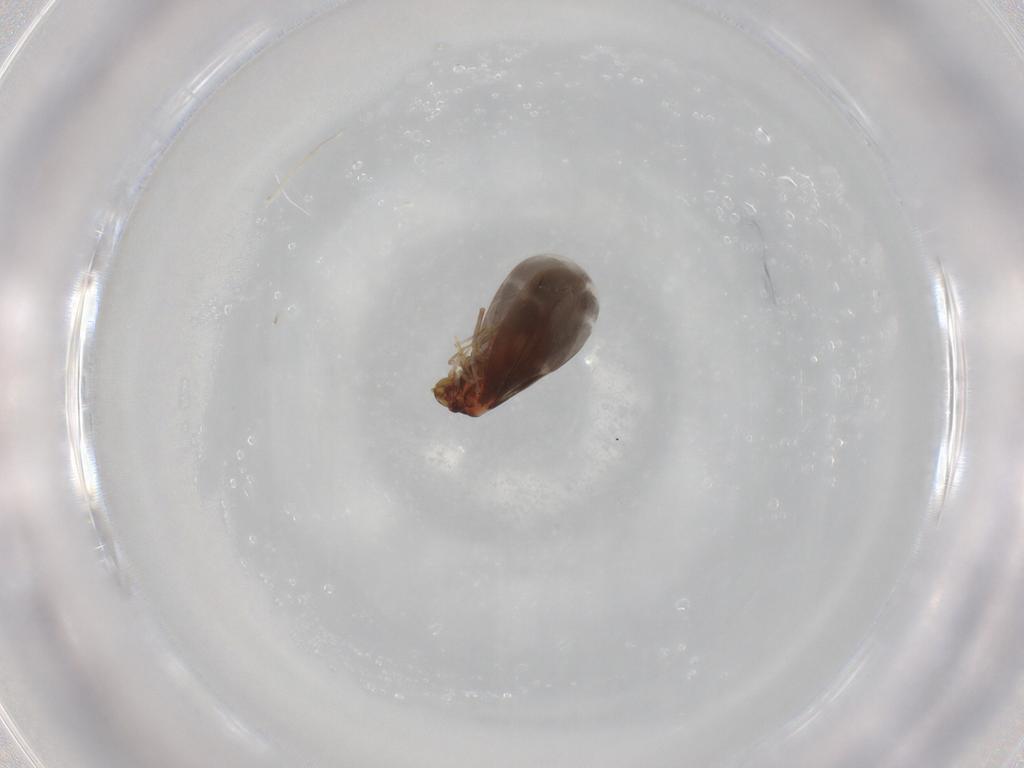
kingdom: Animalia
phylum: Arthropoda
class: Insecta
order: Hemiptera
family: Aleyrodidae
